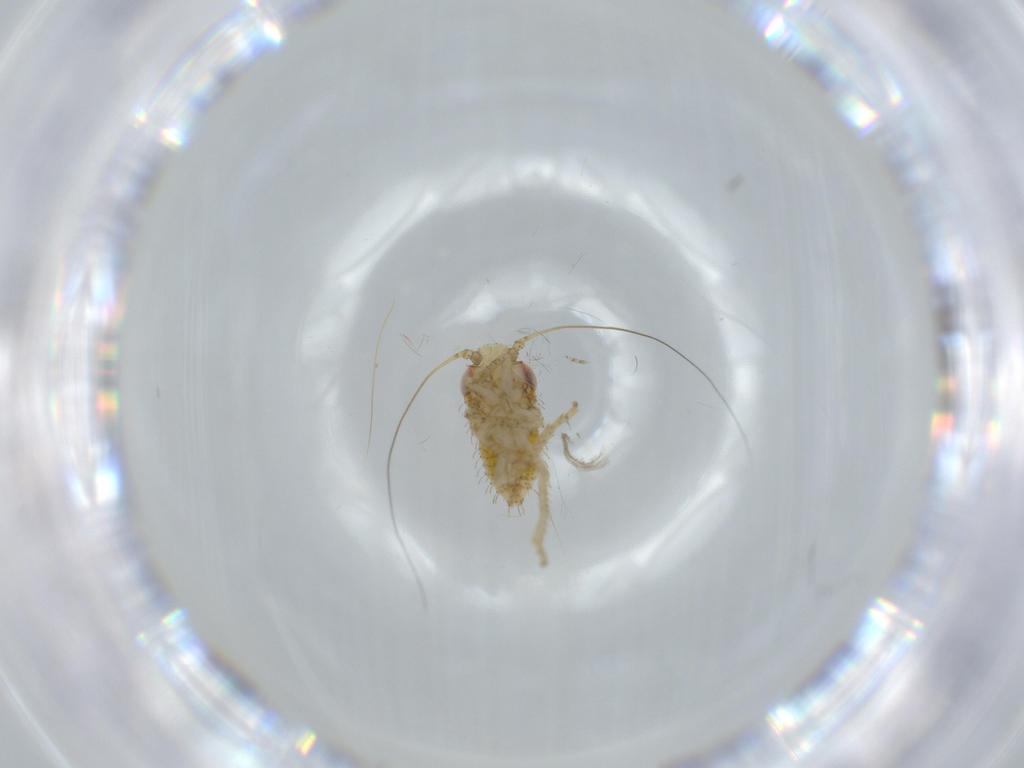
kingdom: Animalia
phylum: Arthropoda
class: Insecta
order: Hemiptera
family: Cicadellidae
